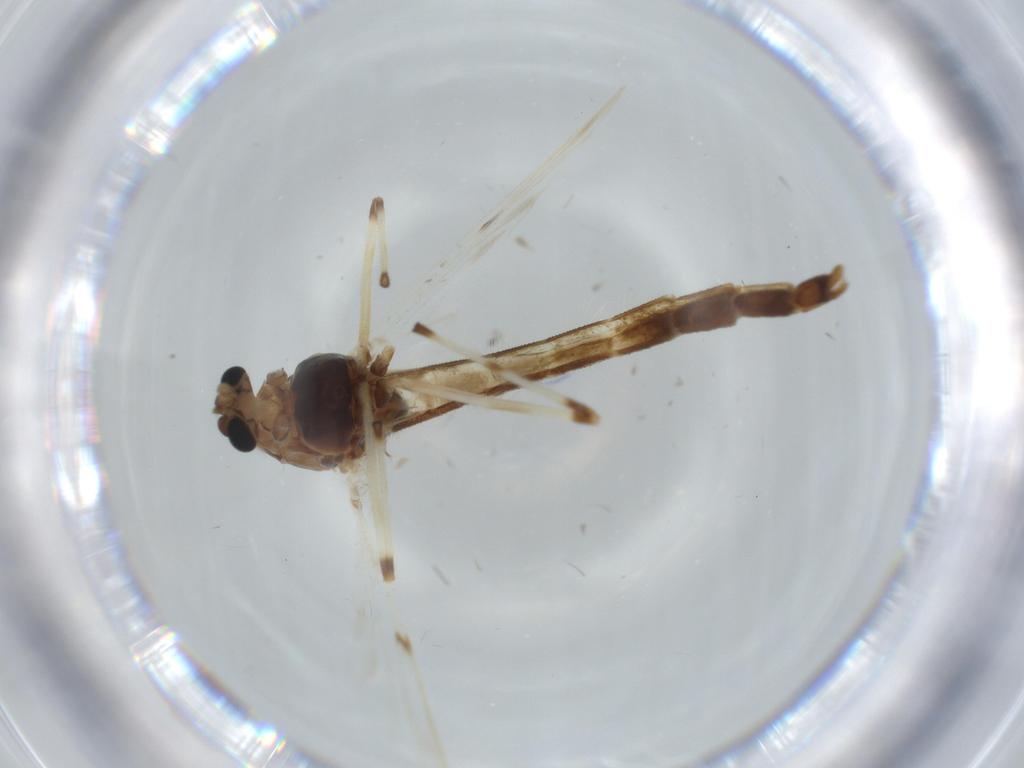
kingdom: Animalia
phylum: Arthropoda
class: Insecta
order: Diptera
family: Chironomidae
